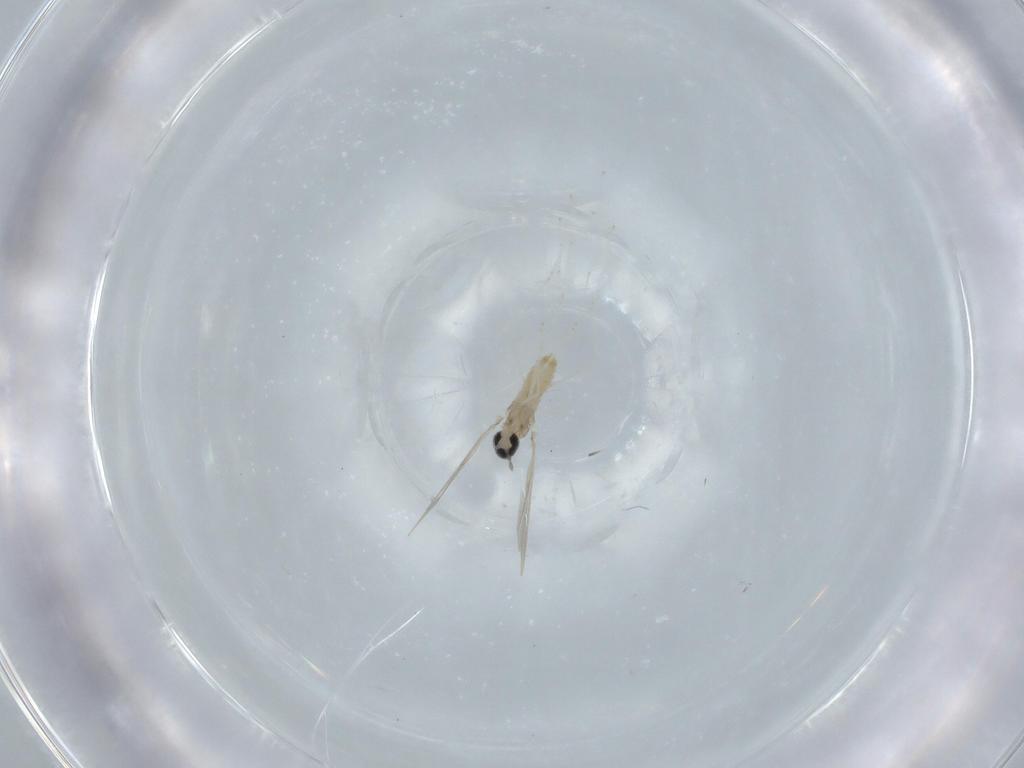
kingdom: Animalia
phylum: Arthropoda
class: Insecta
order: Diptera
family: Cecidomyiidae
